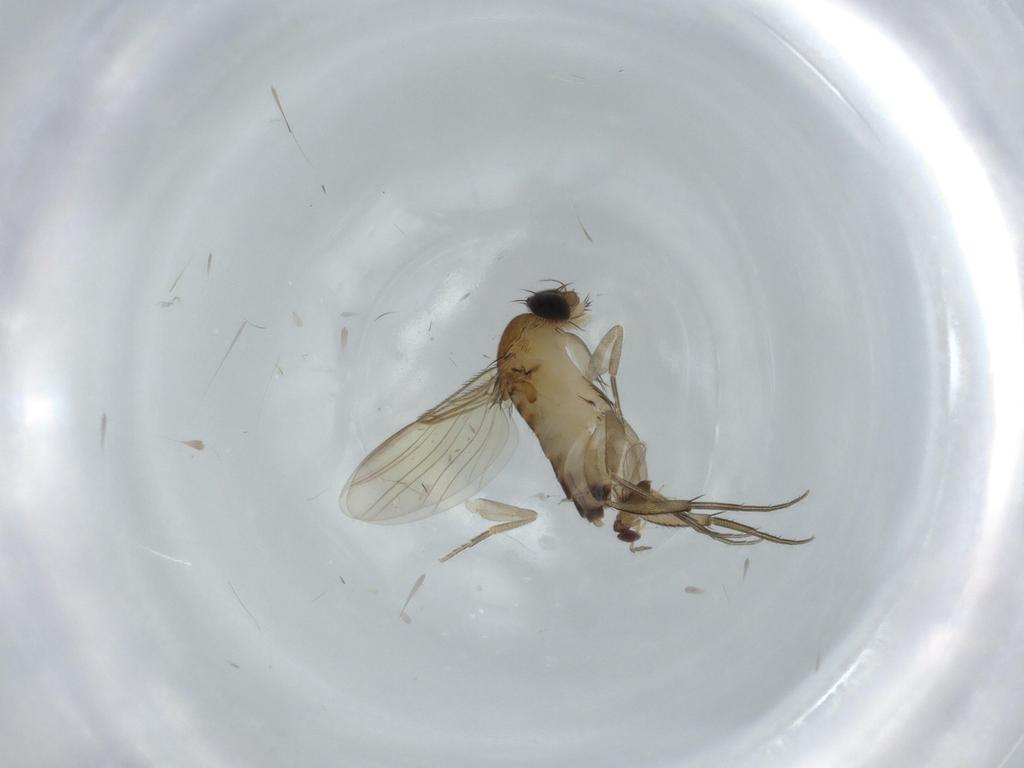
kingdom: Animalia
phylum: Arthropoda
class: Insecta
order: Diptera
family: Phoridae
